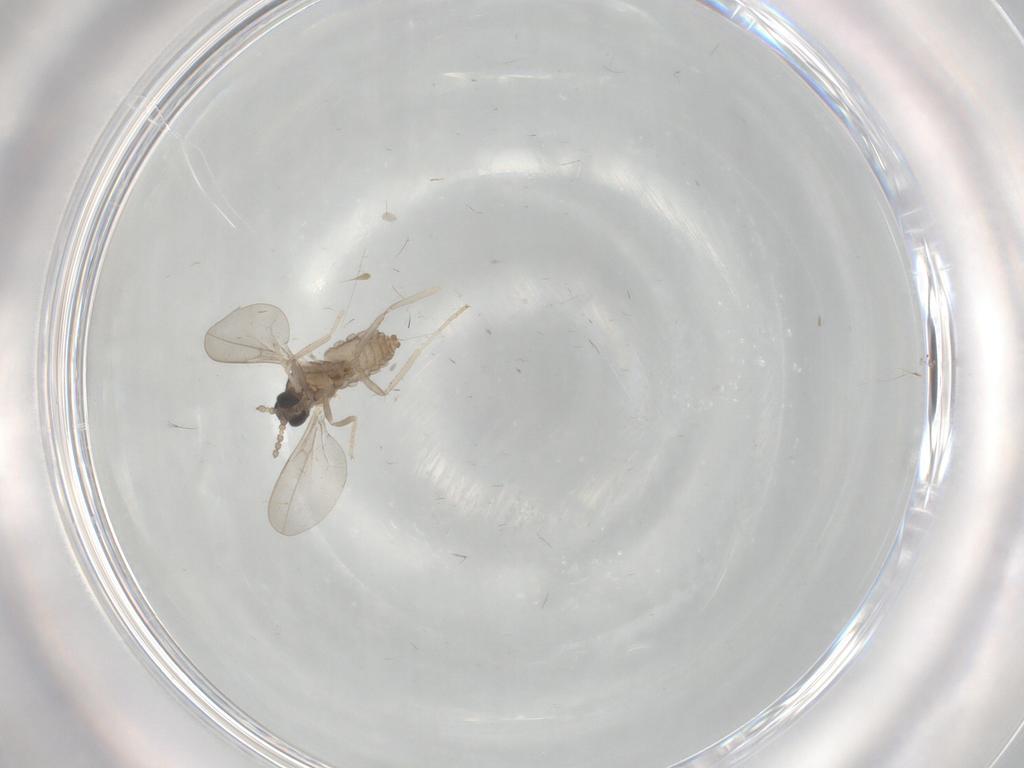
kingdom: Animalia
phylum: Arthropoda
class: Insecta
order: Diptera
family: Cecidomyiidae
